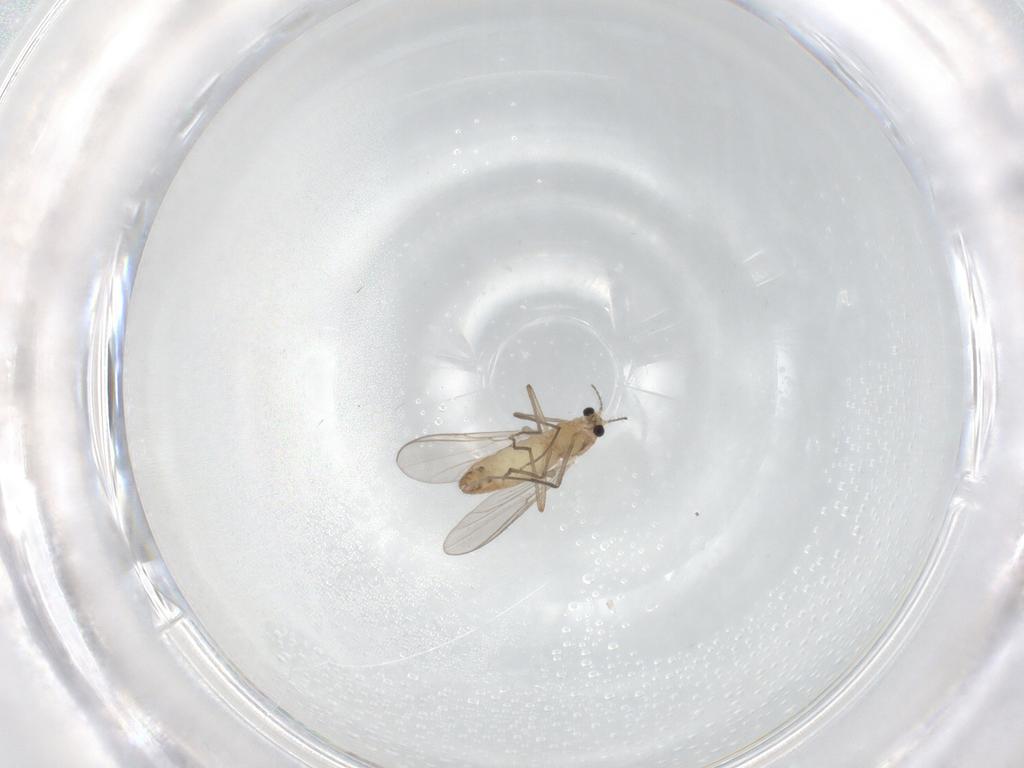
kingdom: Animalia
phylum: Arthropoda
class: Insecta
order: Diptera
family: Chironomidae
